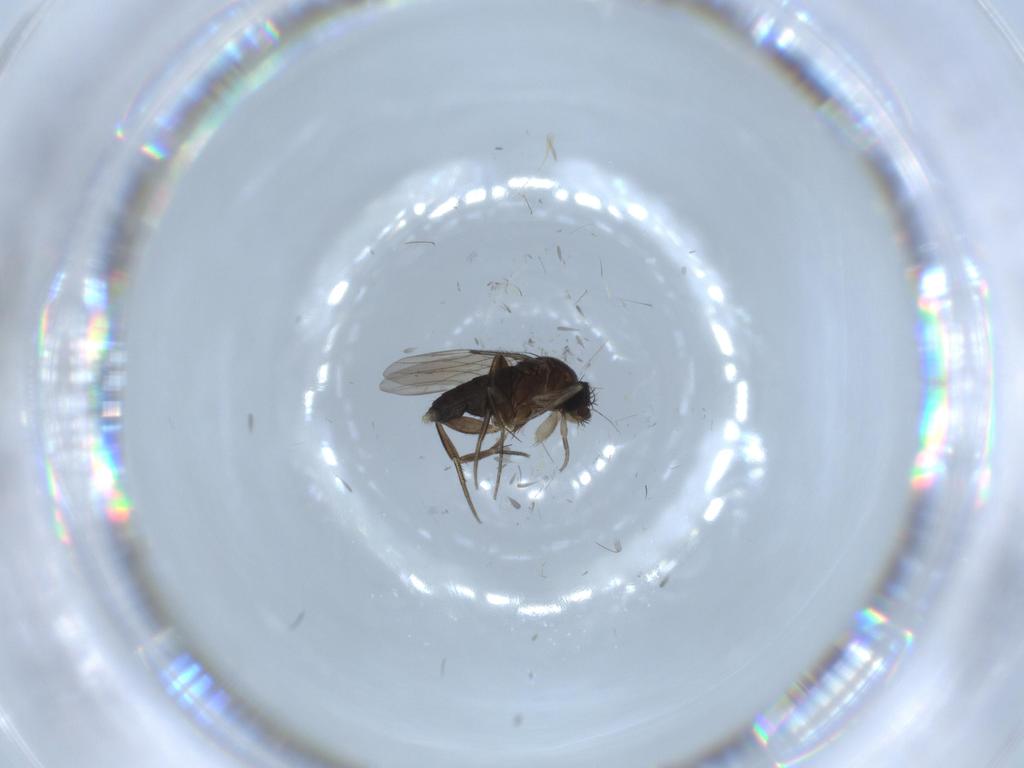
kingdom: Animalia
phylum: Arthropoda
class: Insecta
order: Diptera
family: Phoridae
